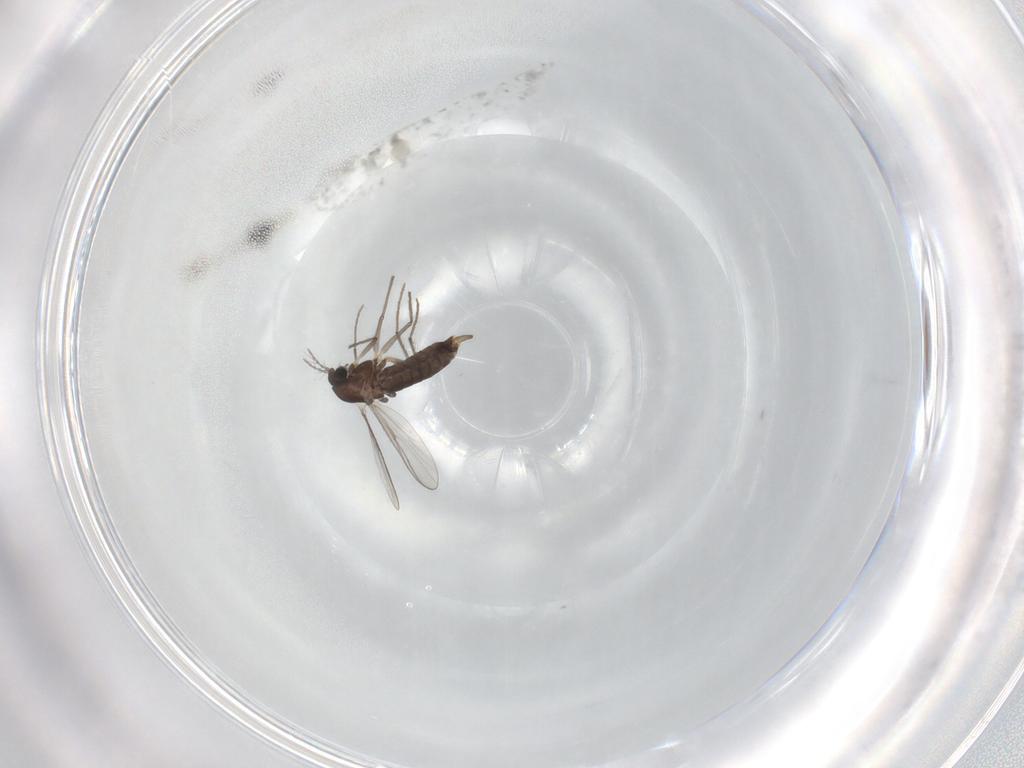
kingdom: Animalia
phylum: Arthropoda
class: Insecta
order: Diptera
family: Chironomidae
